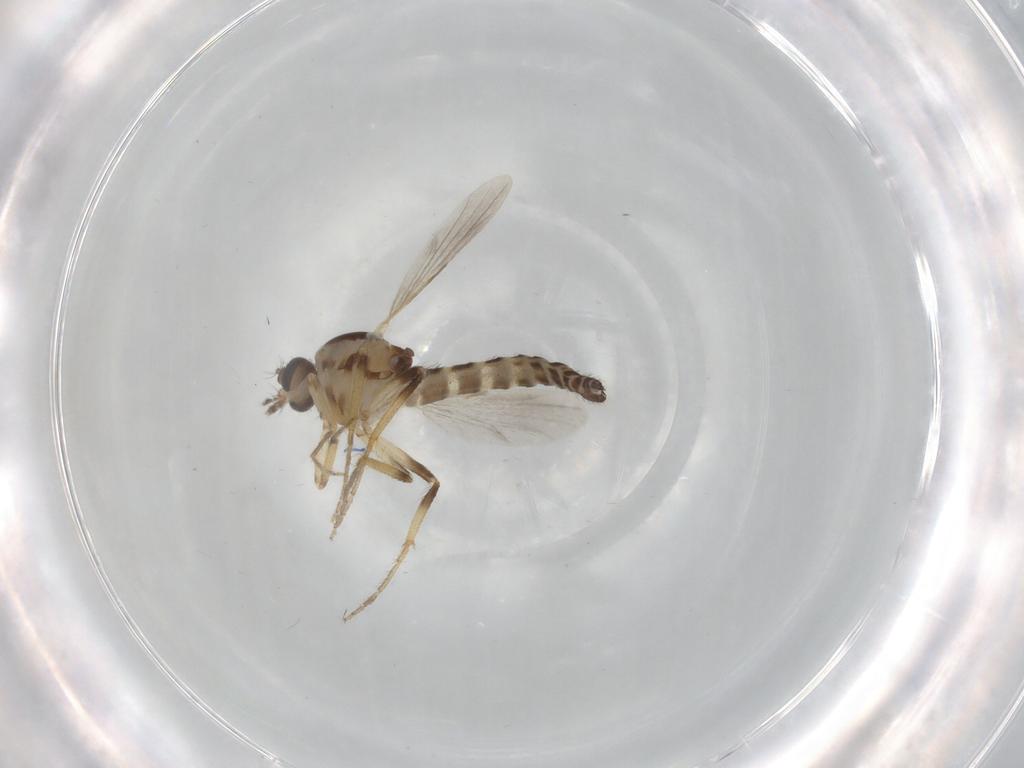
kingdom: Animalia
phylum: Arthropoda
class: Insecta
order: Diptera
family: Ceratopogonidae
